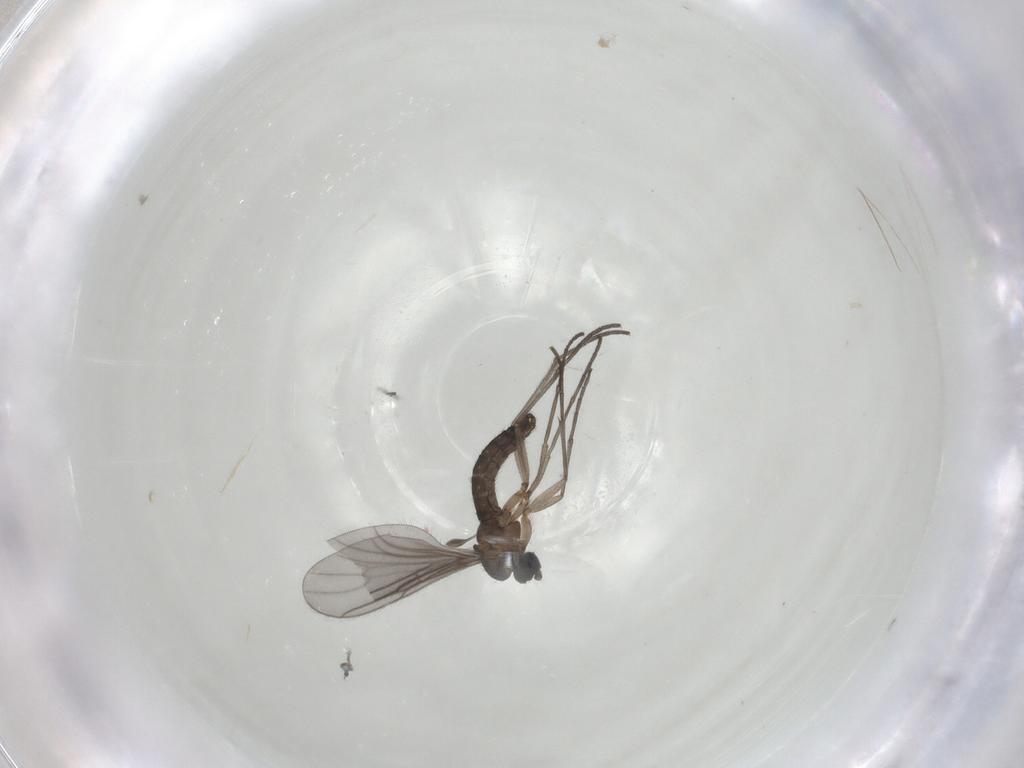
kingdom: Animalia
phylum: Arthropoda
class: Insecta
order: Diptera
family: Sciaridae
